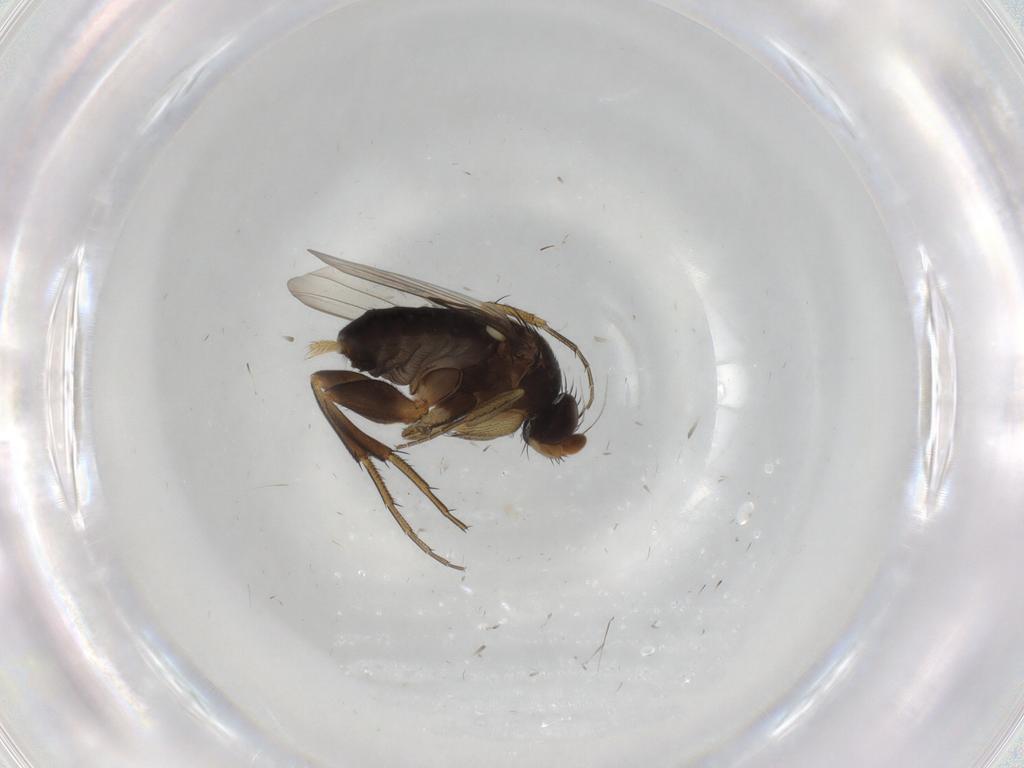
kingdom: Animalia
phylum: Arthropoda
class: Insecta
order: Diptera
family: Phoridae
